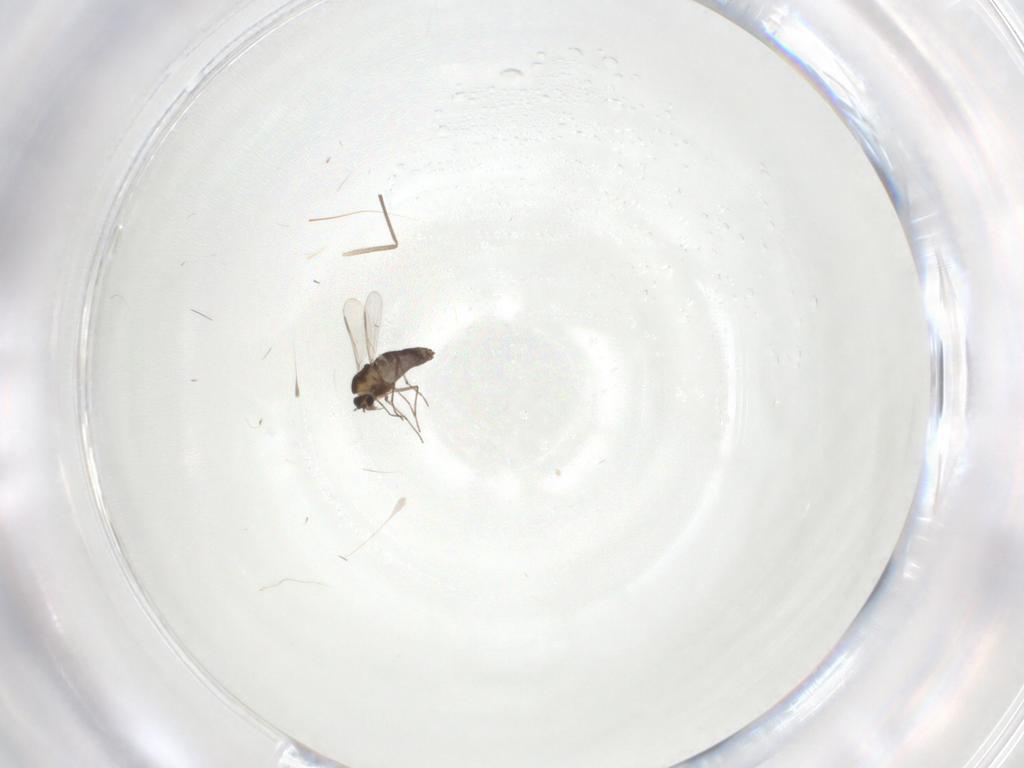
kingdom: Animalia
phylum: Arthropoda
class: Insecta
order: Diptera
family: Chironomidae
